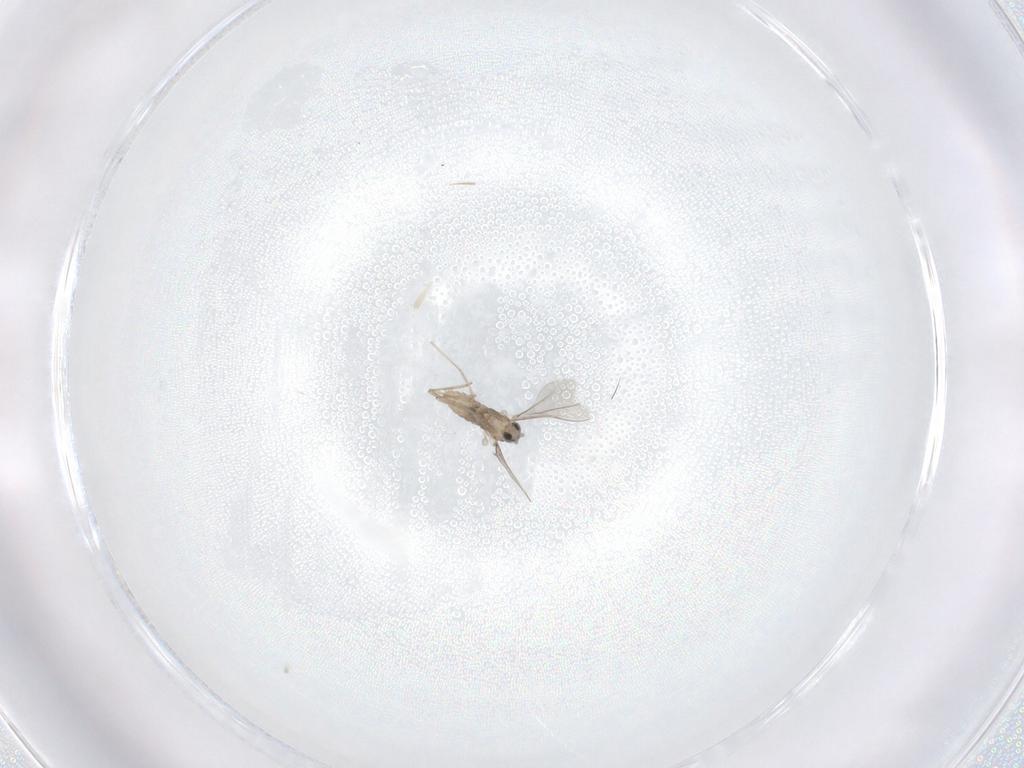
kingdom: Animalia
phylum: Arthropoda
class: Insecta
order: Diptera
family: Cecidomyiidae
